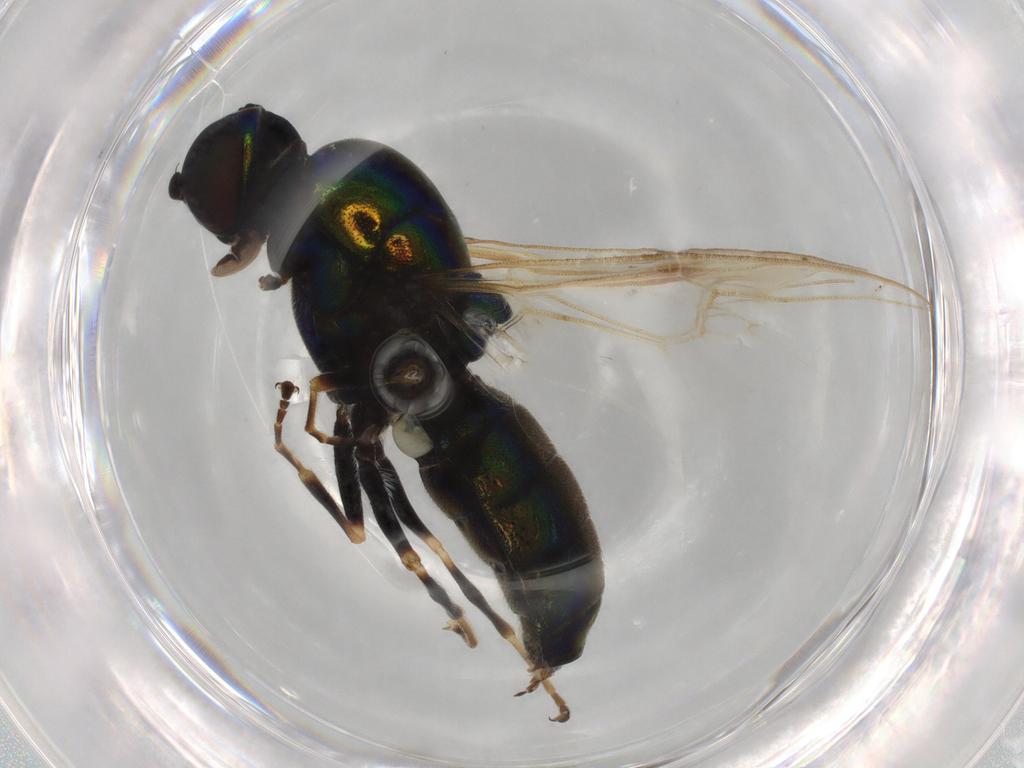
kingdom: Animalia
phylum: Arthropoda
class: Insecta
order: Diptera
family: Stratiomyidae
